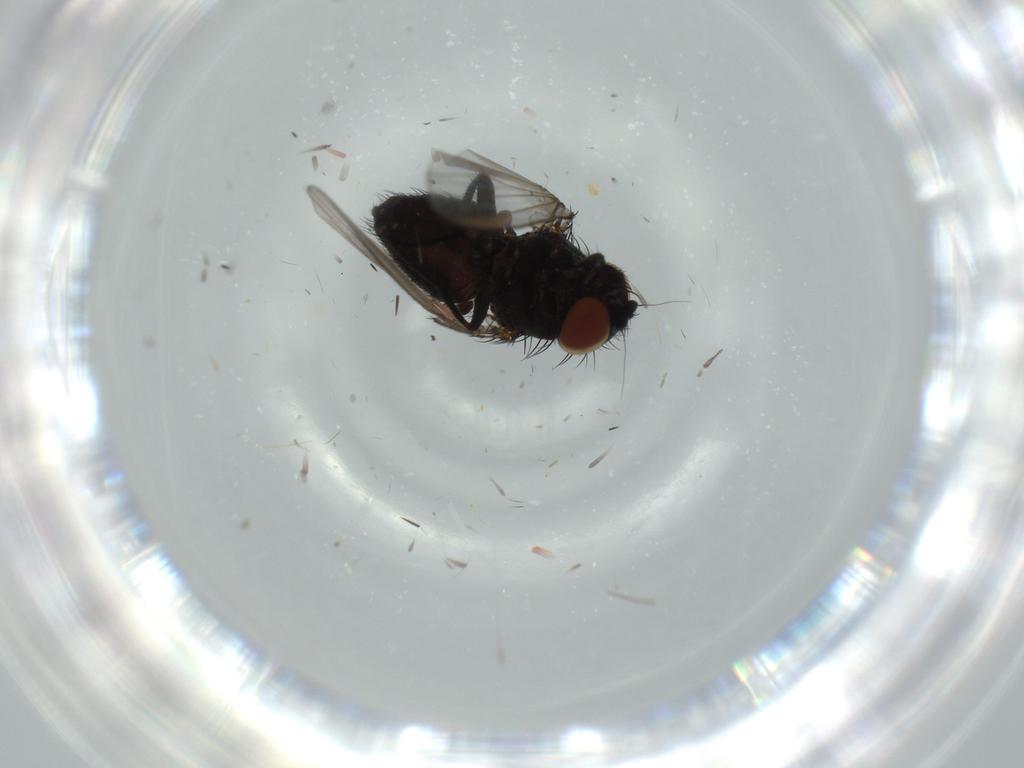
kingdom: Animalia
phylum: Arthropoda
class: Insecta
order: Diptera
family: Cecidomyiidae
